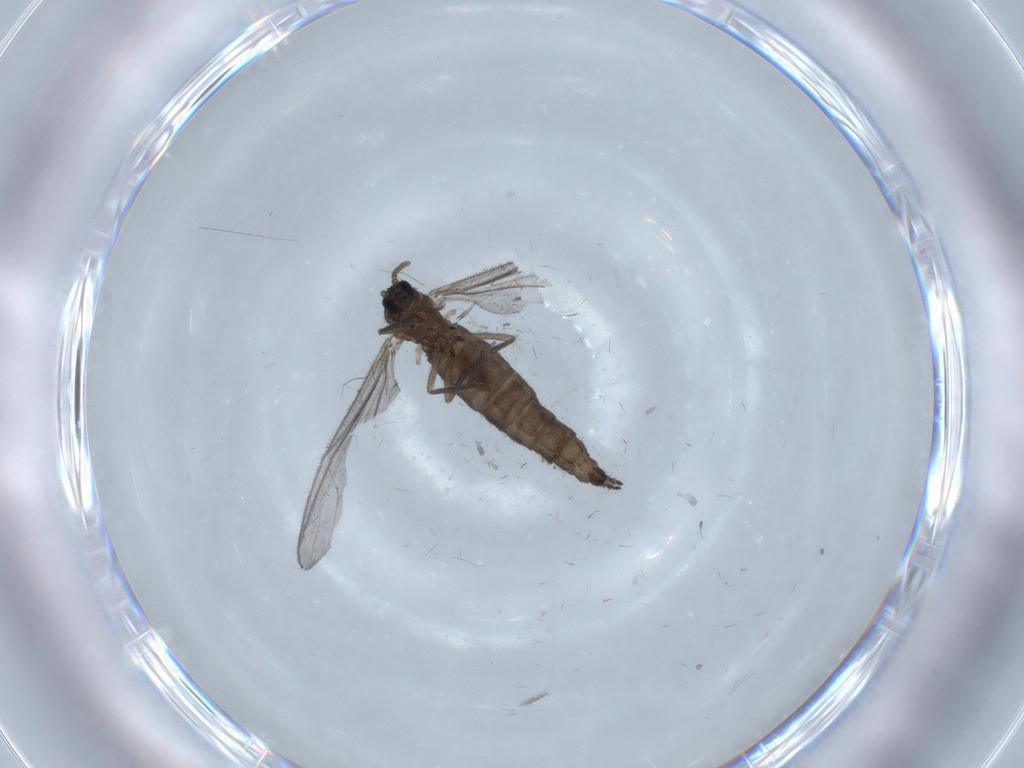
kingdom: Animalia
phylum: Arthropoda
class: Insecta
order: Diptera
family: Sciaridae
